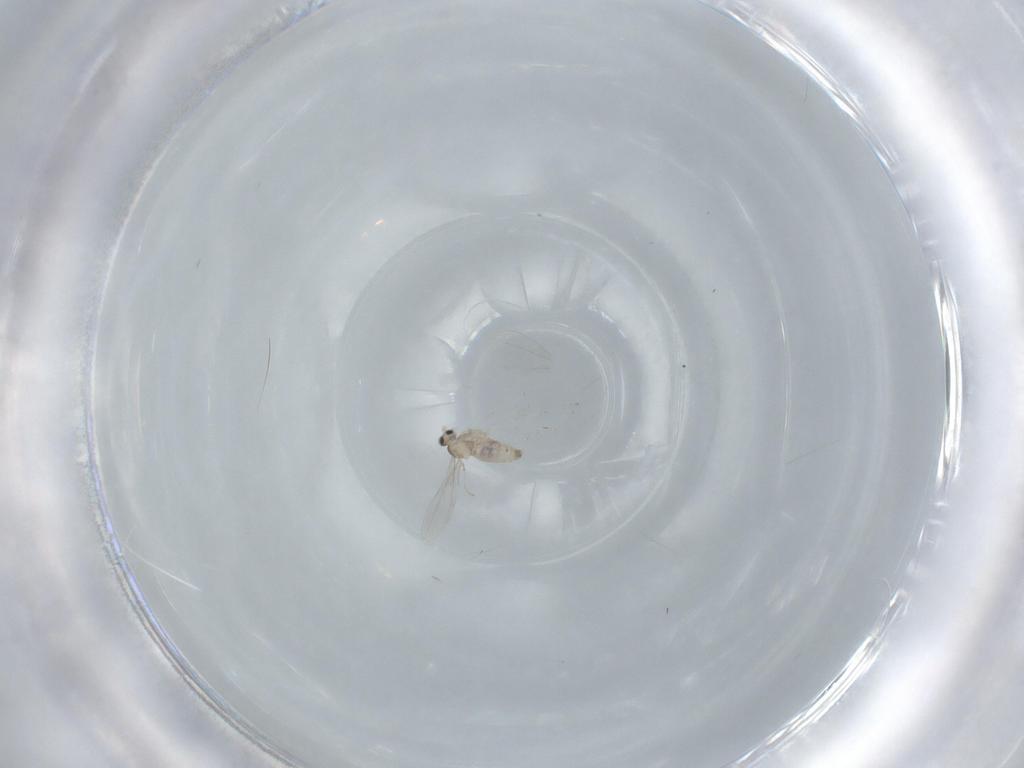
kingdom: Animalia
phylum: Arthropoda
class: Insecta
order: Diptera
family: Cecidomyiidae
